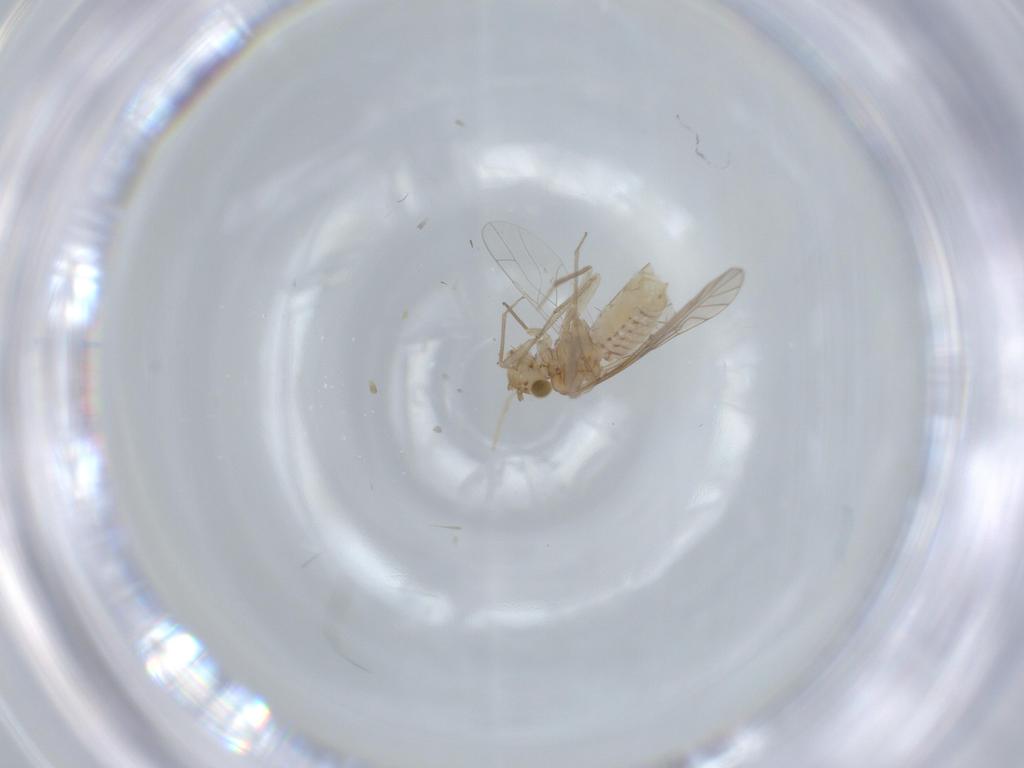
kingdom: Animalia
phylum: Arthropoda
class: Insecta
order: Psocodea
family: Lachesillidae
